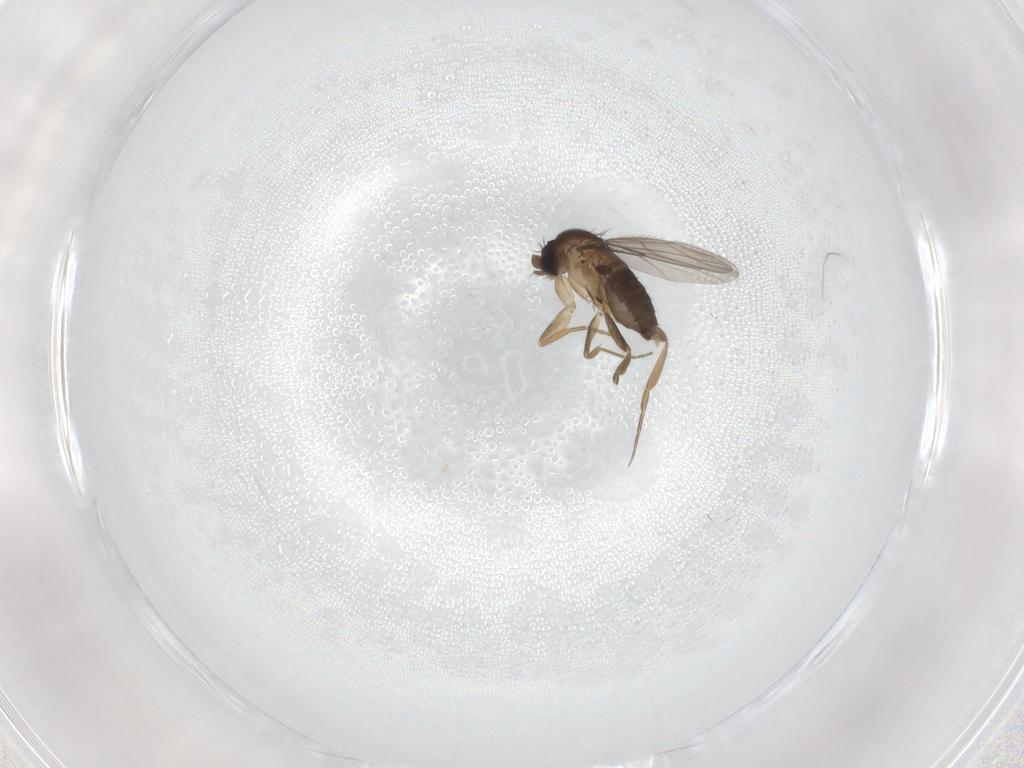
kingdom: Animalia
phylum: Arthropoda
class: Insecta
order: Diptera
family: Phoridae
